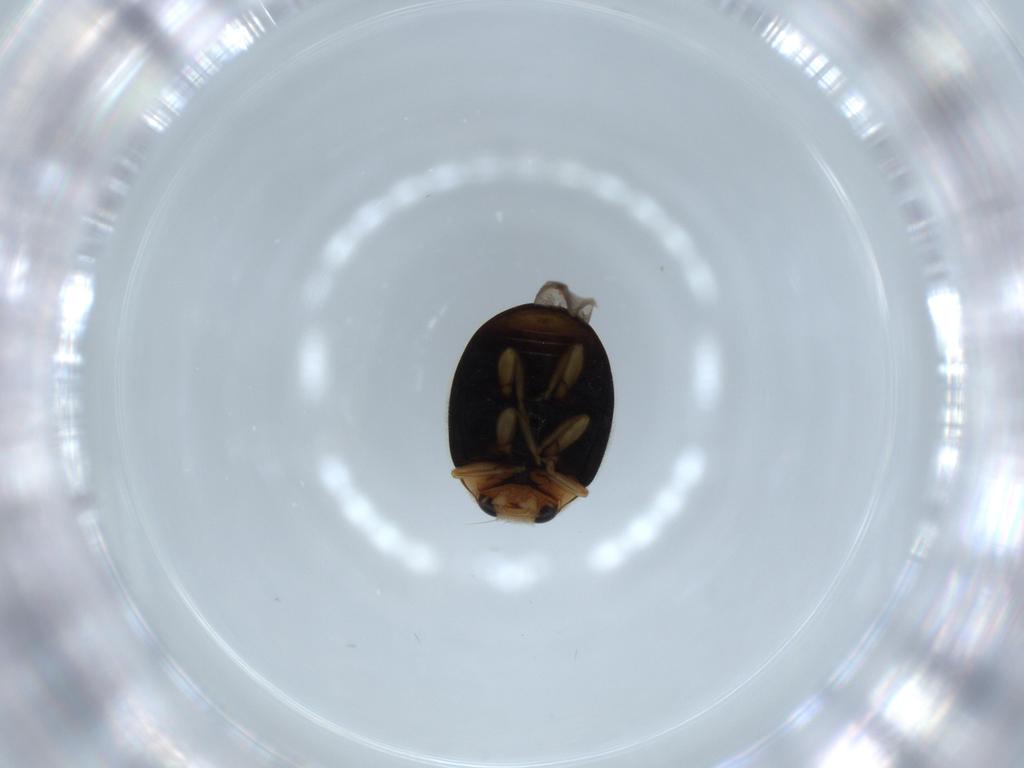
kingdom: Animalia
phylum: Arthropoda
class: Insecta
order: Coleoptera
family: Coccinellidae
